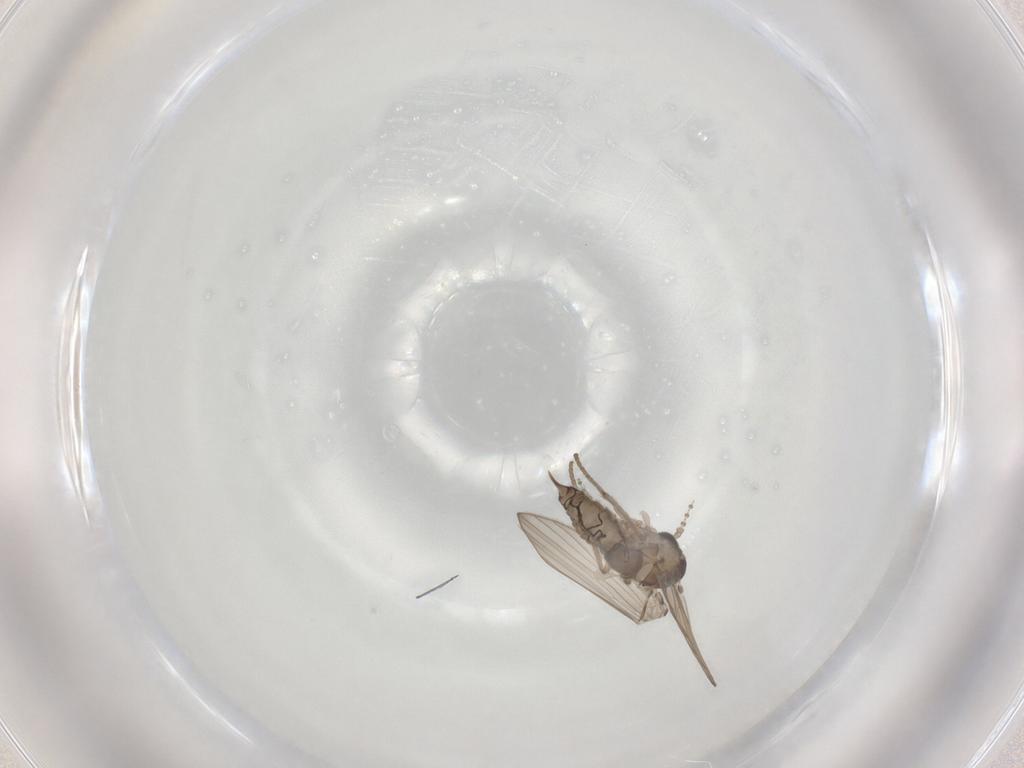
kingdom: Animalia
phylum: Arthropoda
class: Insecta
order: Diptera
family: Psychodidae
